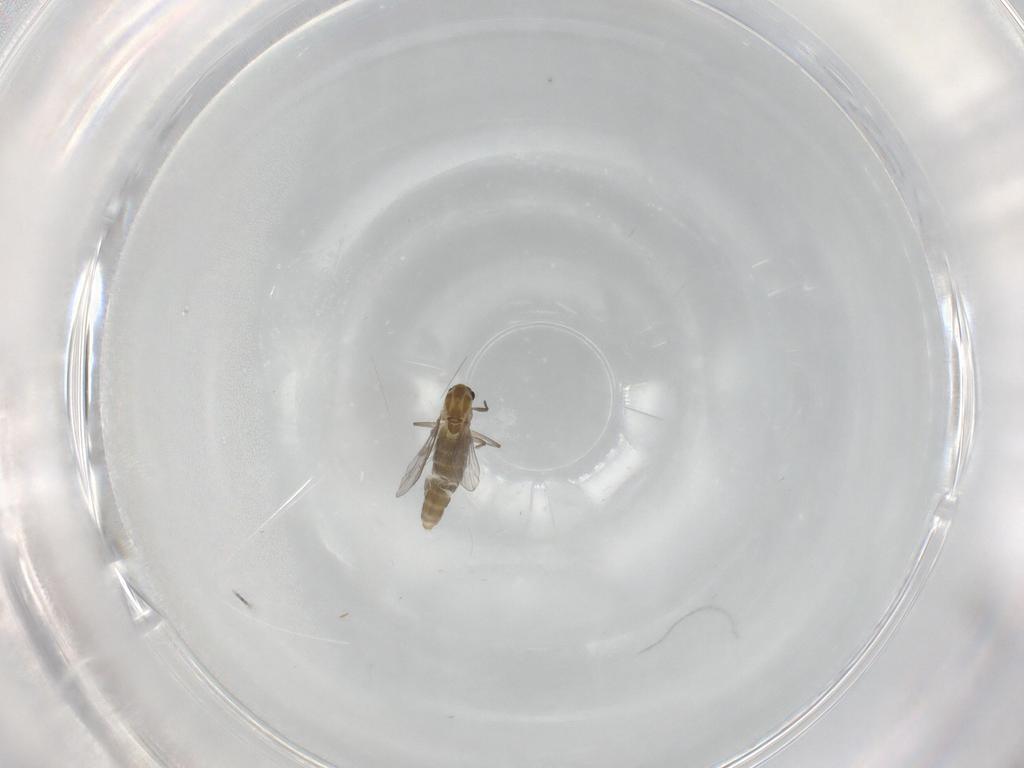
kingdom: Animalia
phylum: Arthropoda
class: Insecta
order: Diptera
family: Chironomidae
